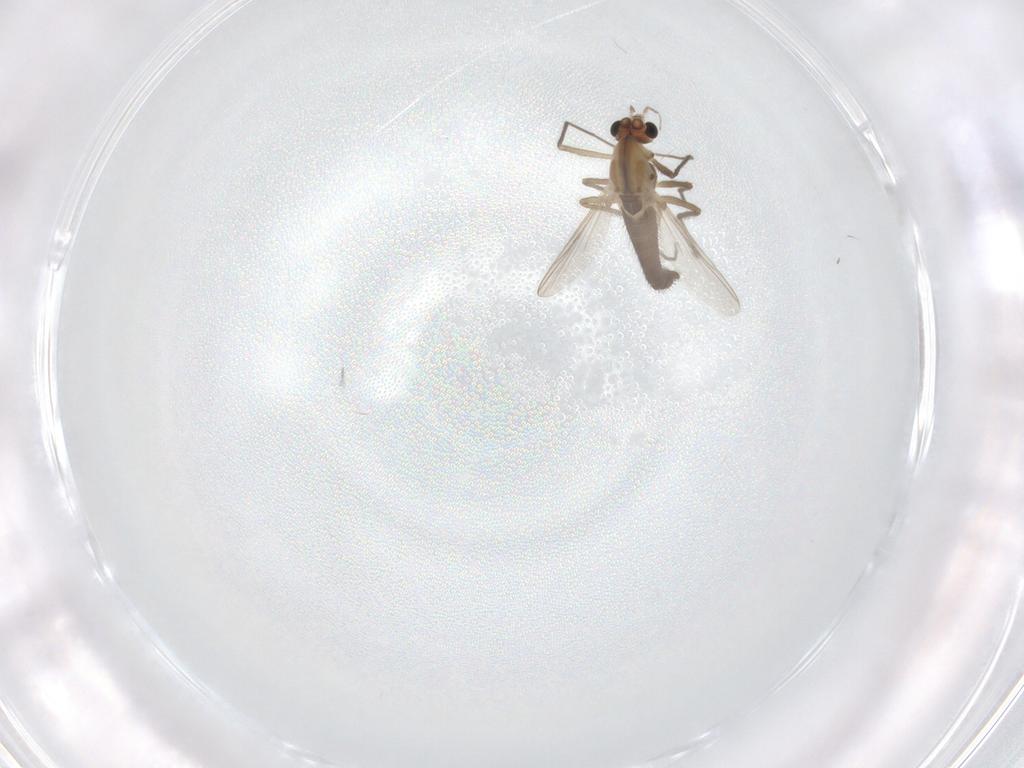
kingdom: Animalia
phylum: Arthropoda
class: Insecta
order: Diptera
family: Chironomidae
